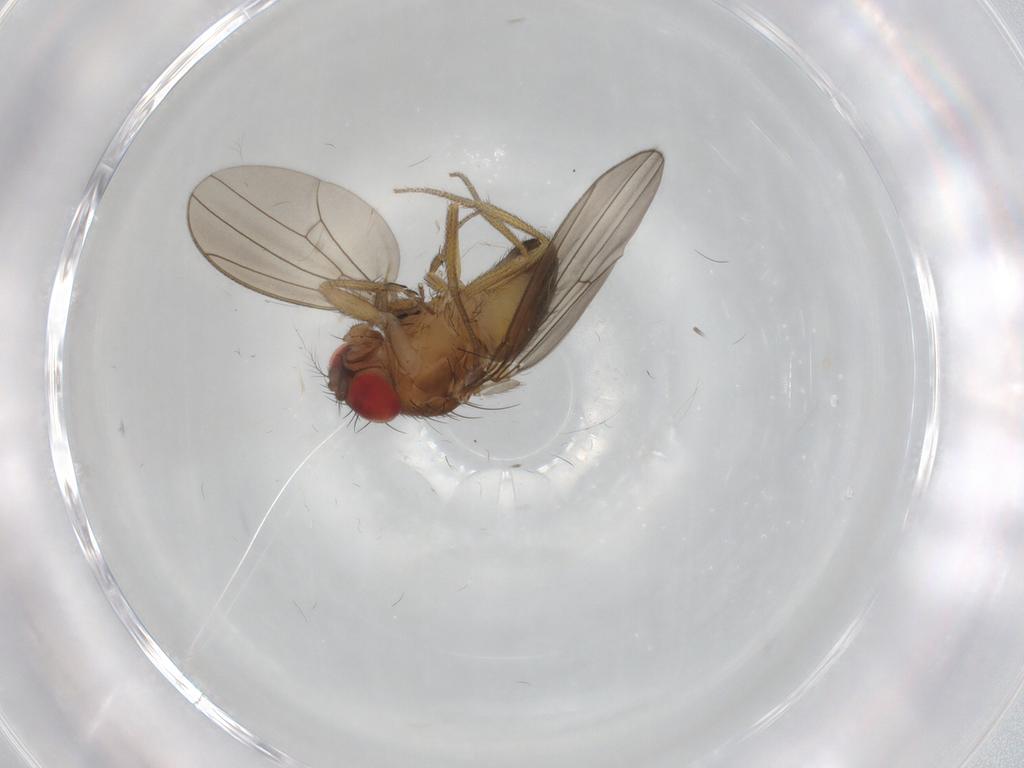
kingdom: Animalia
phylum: Arthropoda
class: Insecta
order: Diptera
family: Drosophilidae
